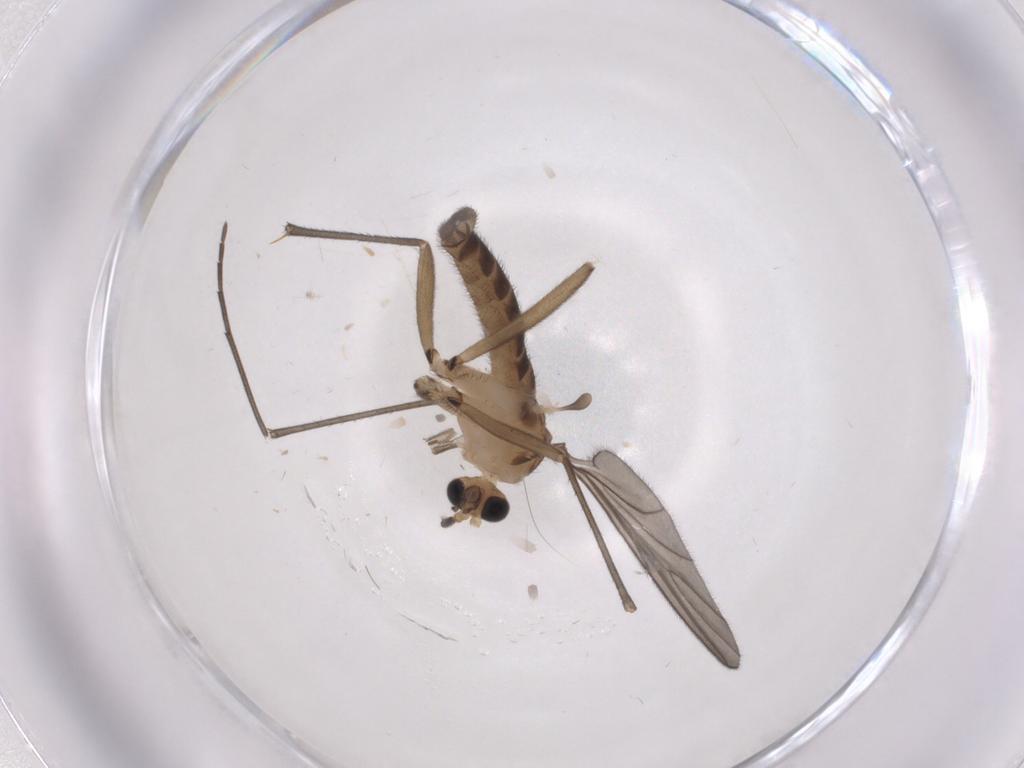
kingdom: Animalia
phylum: Arthropoda
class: Insecta
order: Diptera
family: Sciaridae
